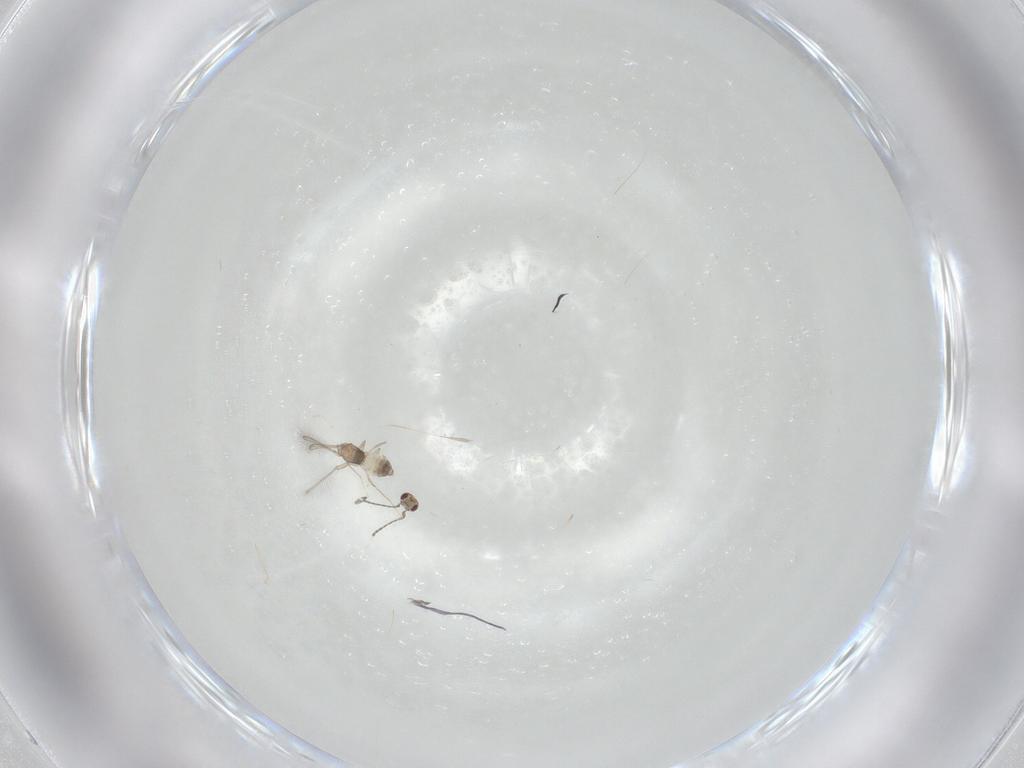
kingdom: Animalia
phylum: Arthropoda
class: Insecta
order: Hymenoptera
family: Mymaridae
